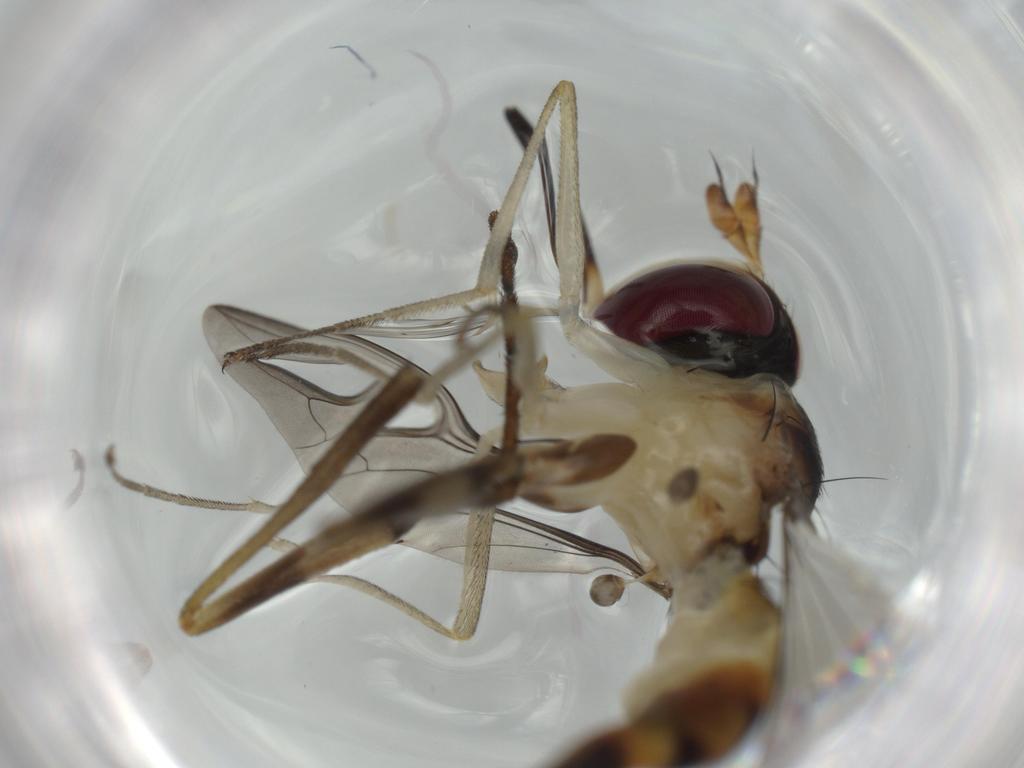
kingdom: Animalia
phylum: Arthropoda
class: Insecta
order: Diptera
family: Conopidae
